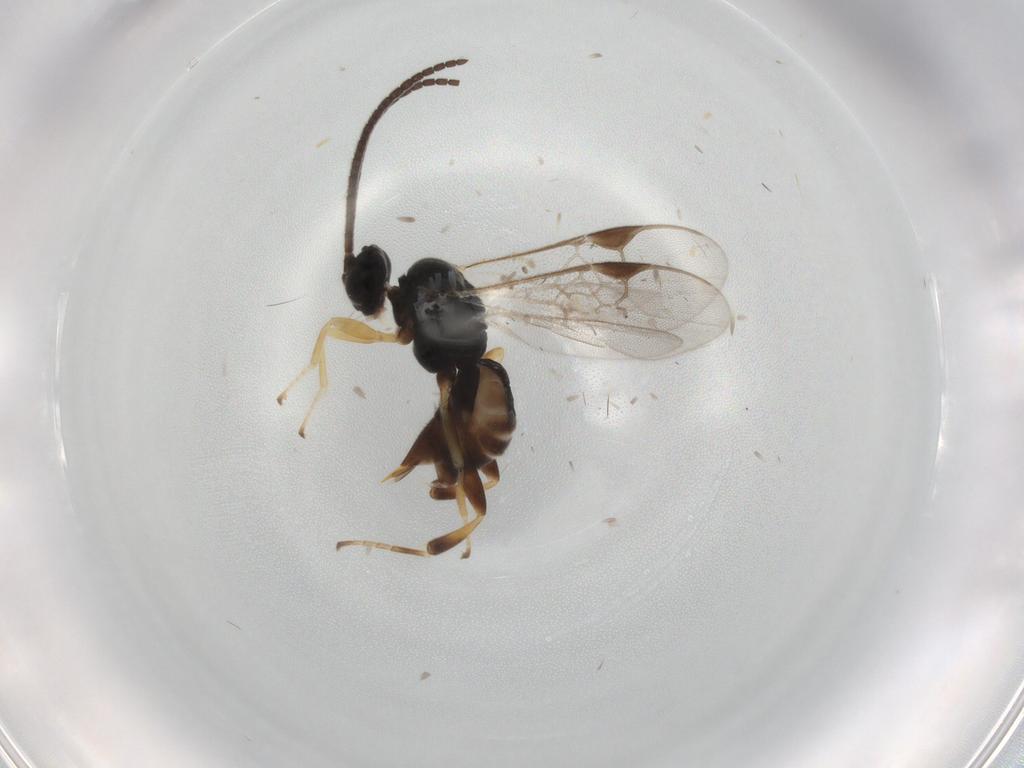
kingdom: Animalia
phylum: Arthropoda
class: Insecta
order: Hymenoptera
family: Braconidae
